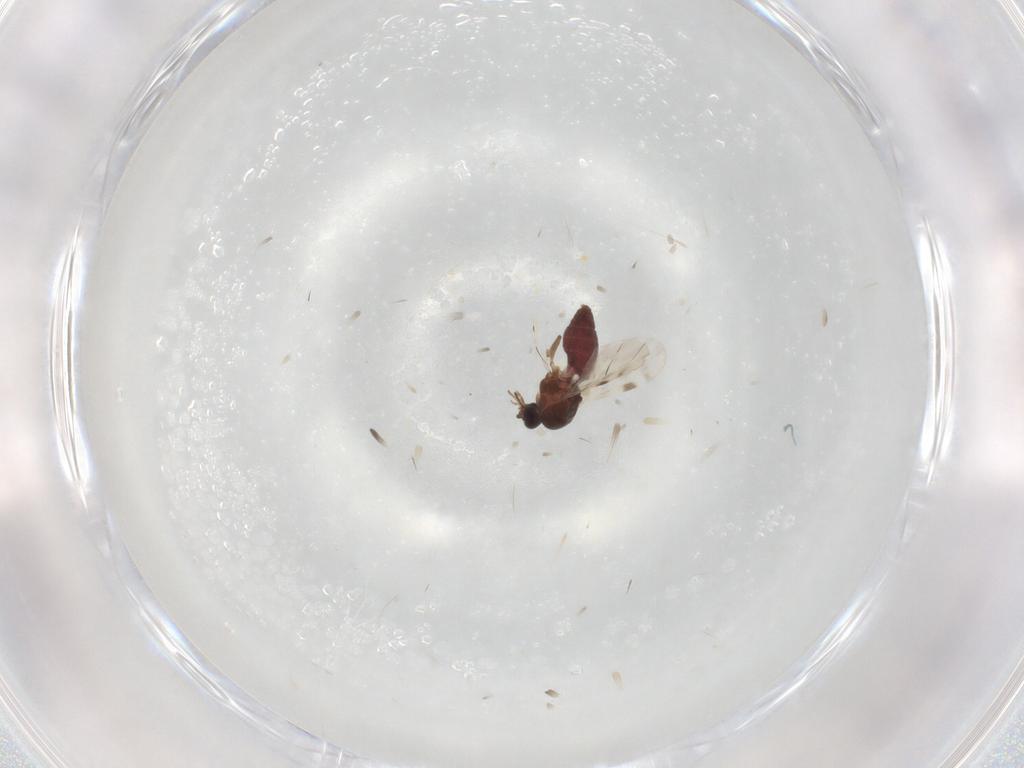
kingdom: Animalia
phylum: Arthropoda
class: Insecta
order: Diptera
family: Ceratopogonidae
